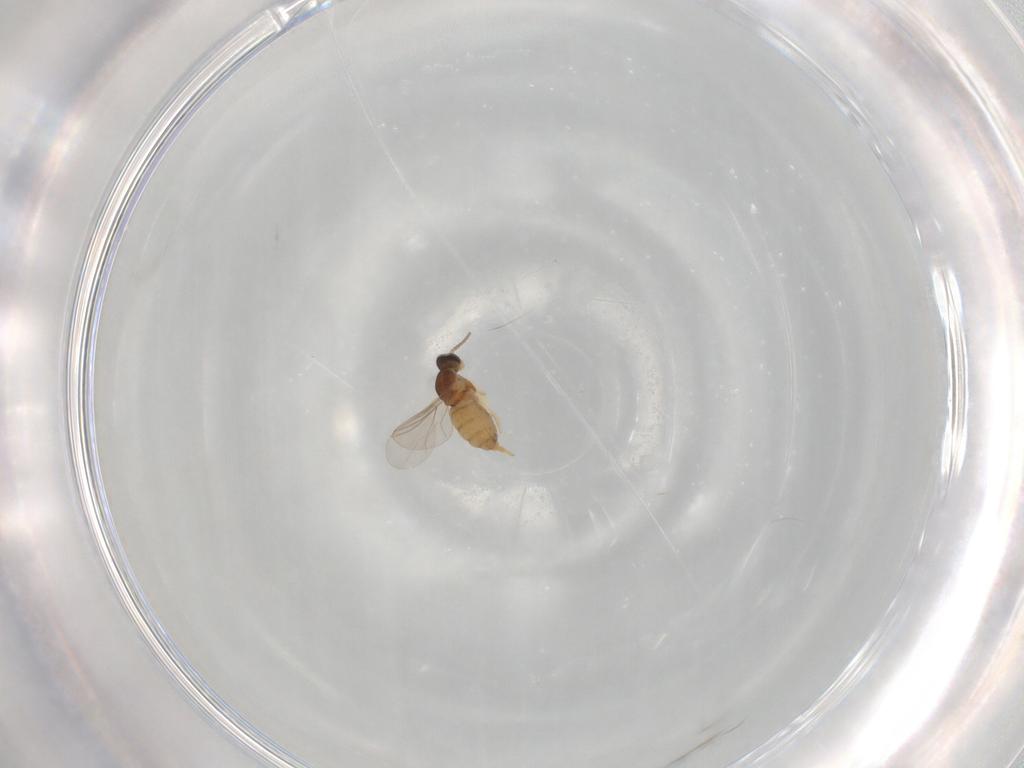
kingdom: Animalia
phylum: Arthropoda
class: Insecta
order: Diptera
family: Cecidomyiidae
